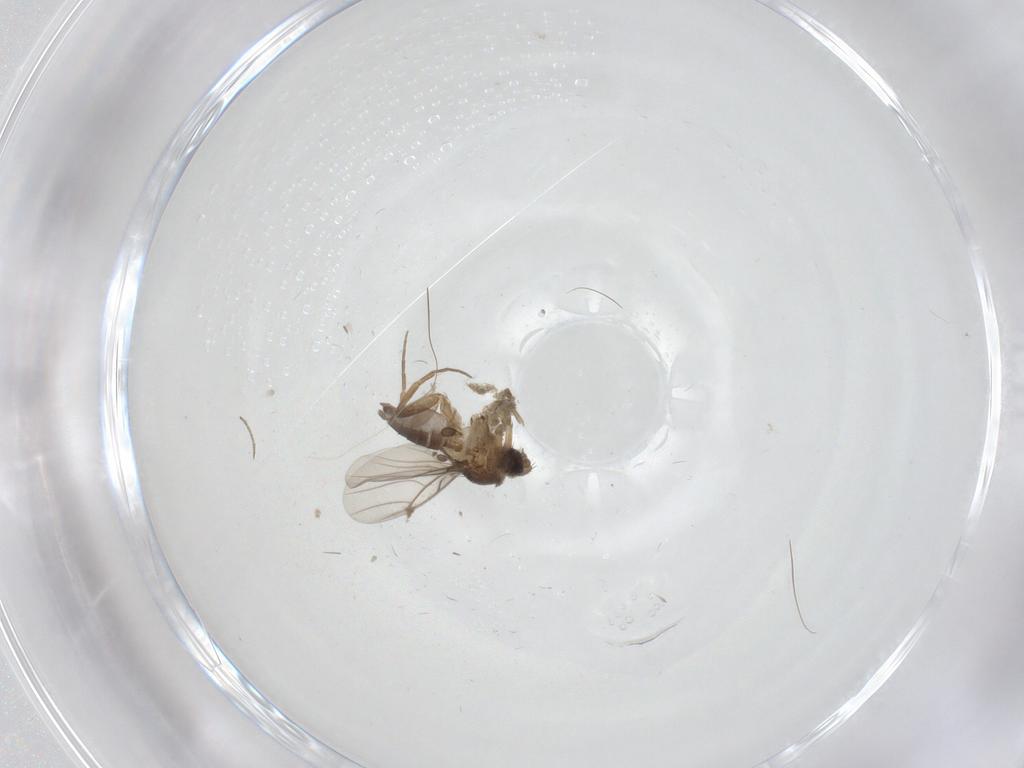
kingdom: Animalia
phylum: Arthropoda
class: Insecta
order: Diptera
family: Phoridae
